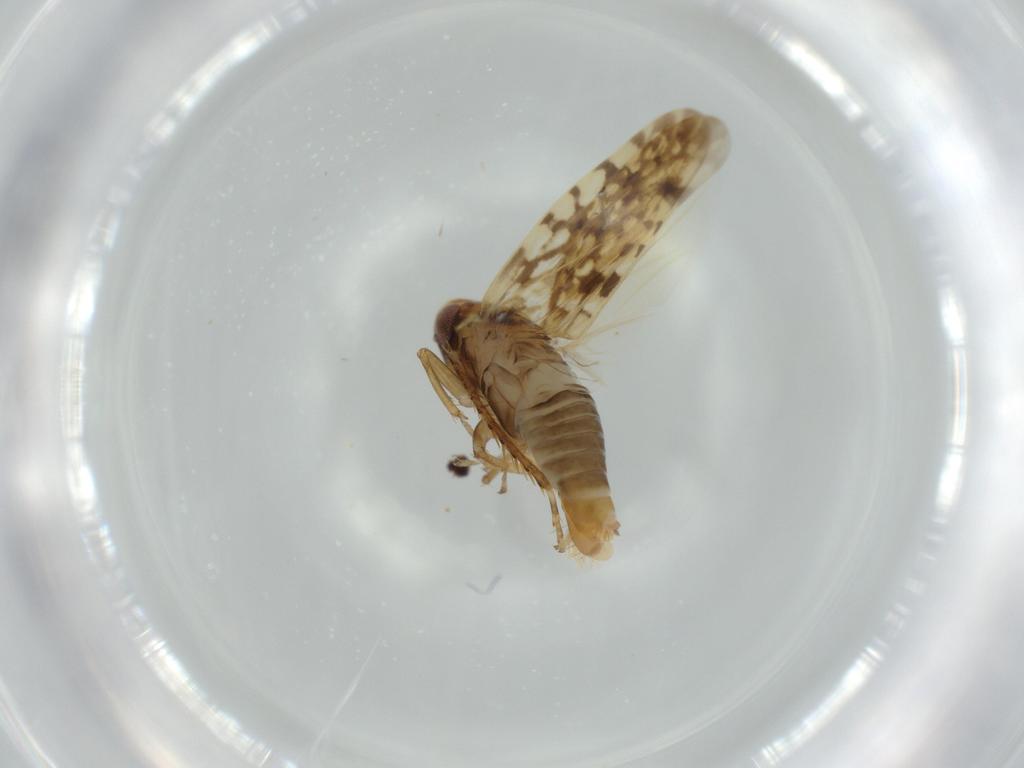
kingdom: Animalia
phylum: Arthropoda
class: Insecta
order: Hemiptera
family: Cicadellidae
